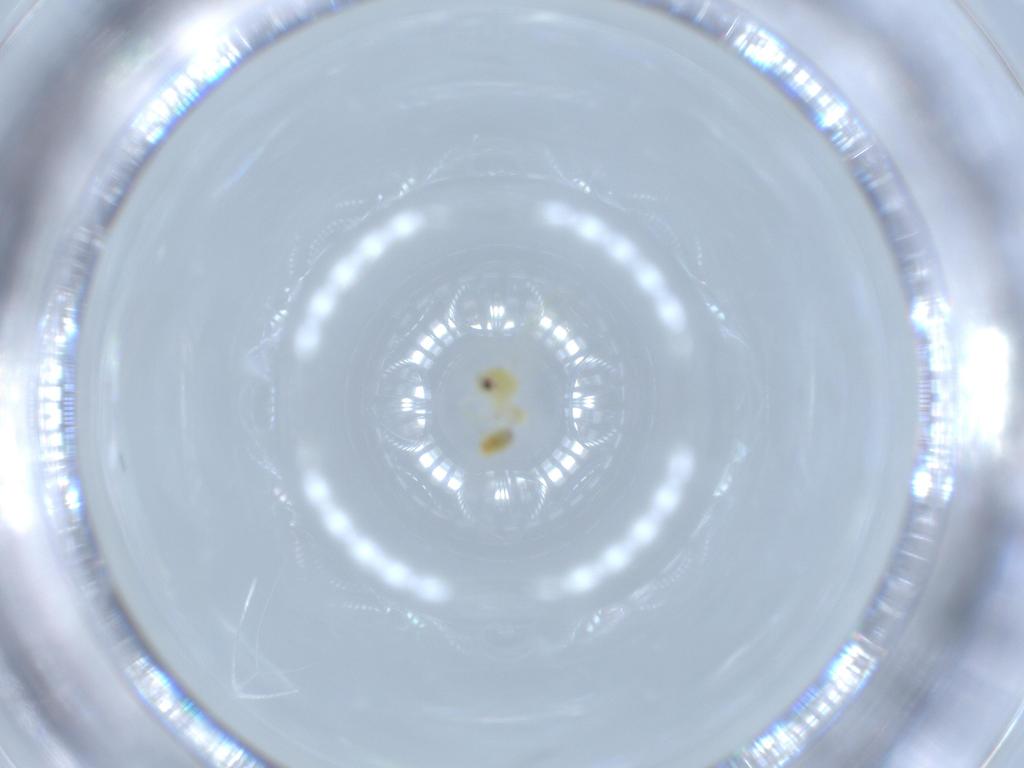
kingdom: Animalia
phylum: Arthropoda
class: Insecta
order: Hemiptera
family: Aleyrodidae
